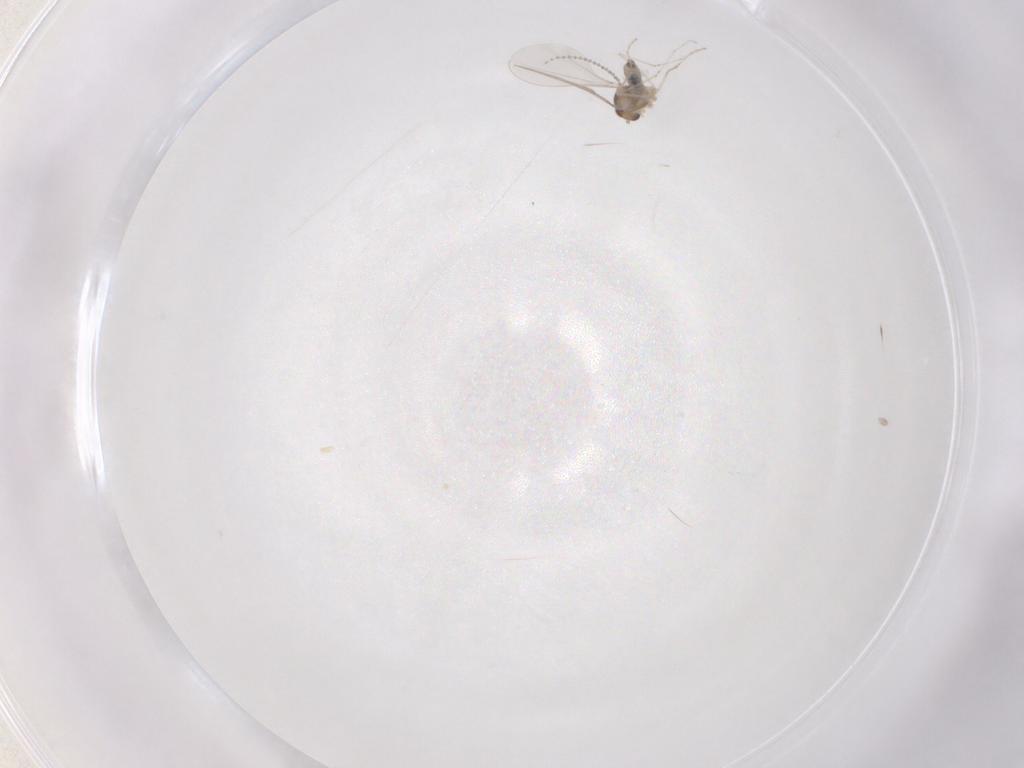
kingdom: Animalia
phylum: Arthropoda
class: Insecta
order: Diptera
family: Cecidomyiidae
